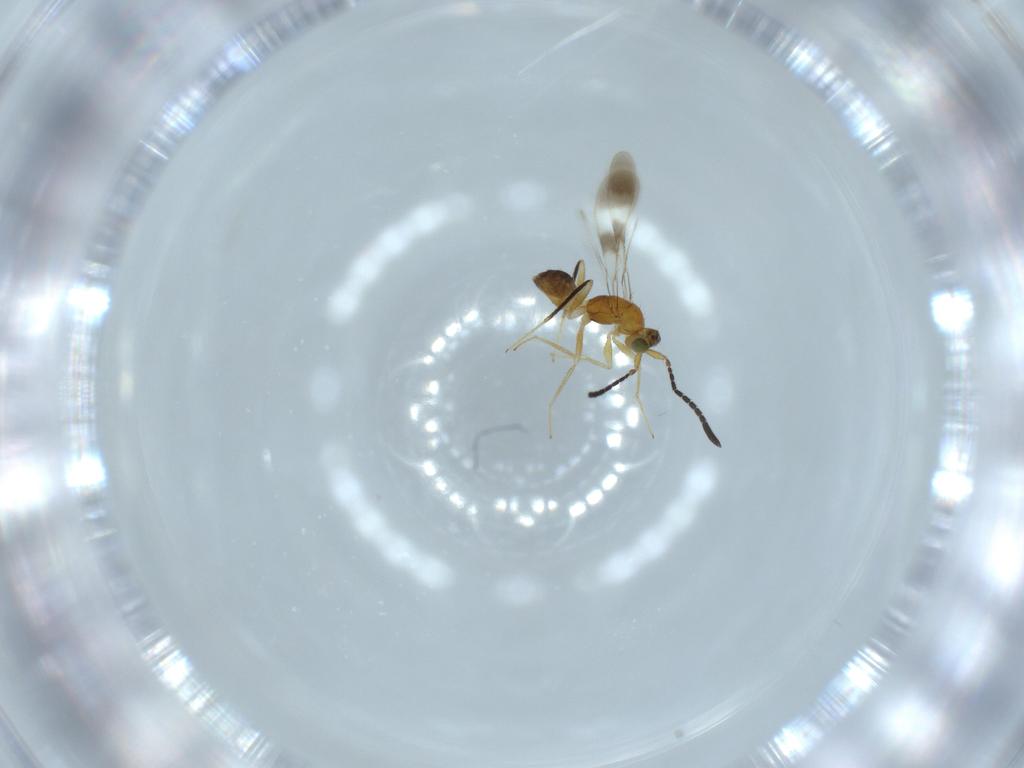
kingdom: Animalia
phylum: Arthropoda
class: Insecta
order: Hymenoptera
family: Mymaridae
